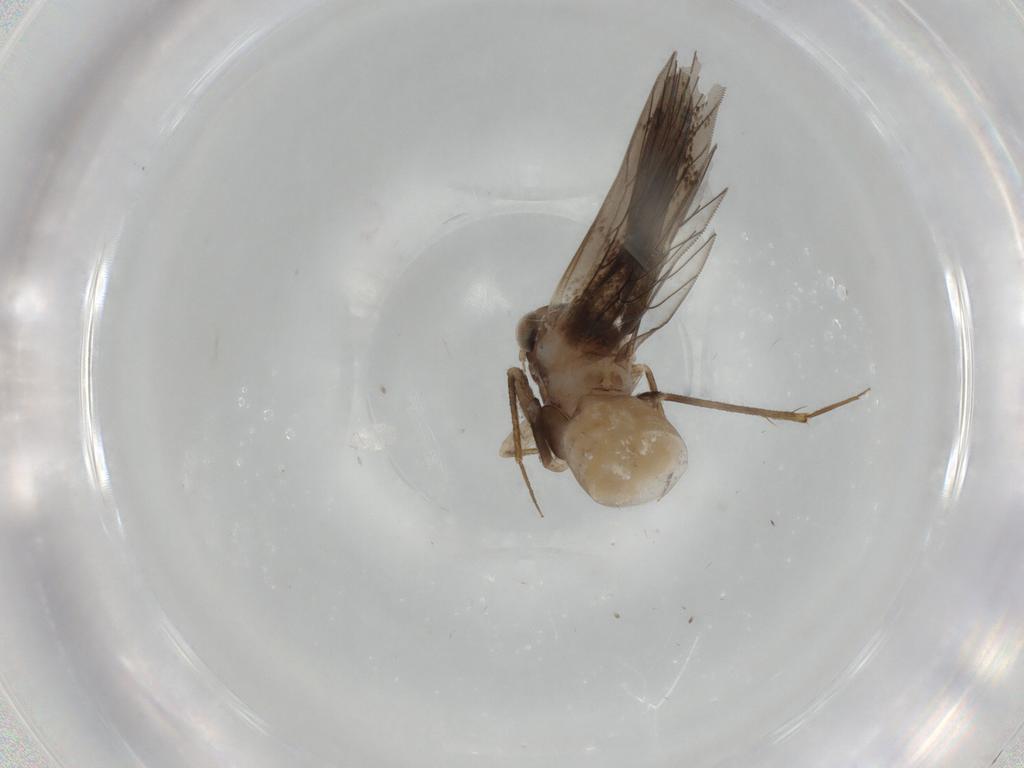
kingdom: Animalia
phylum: Arthropoda
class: Insecta
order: Psocodea
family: Lepidopsocidae
